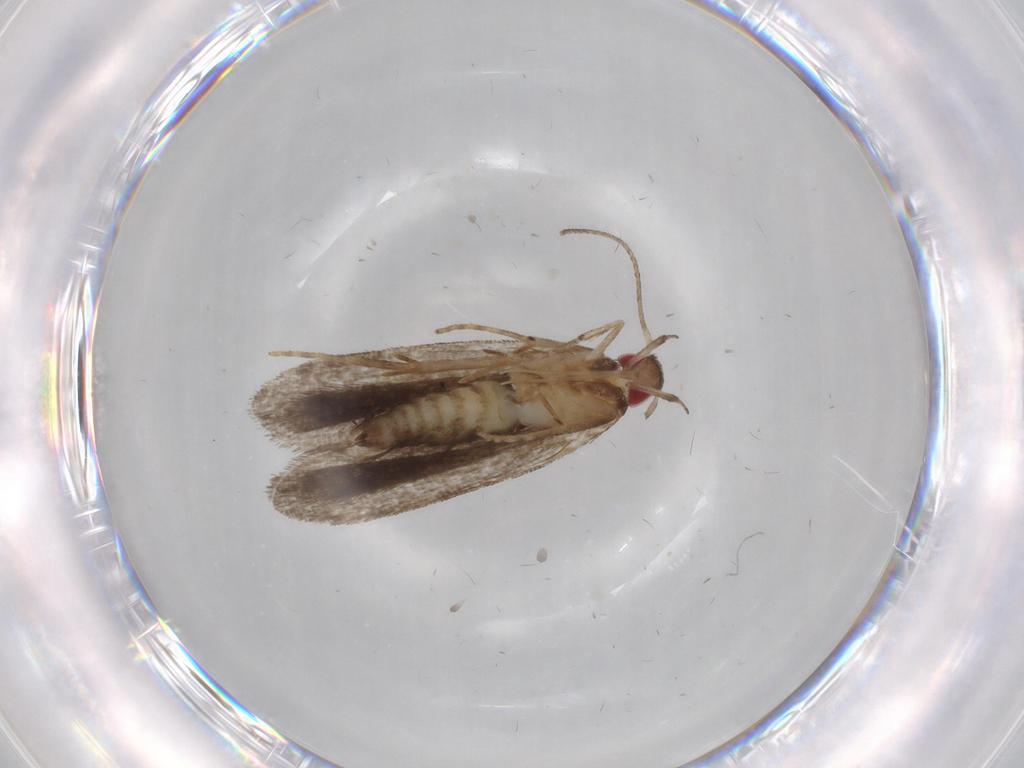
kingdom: Animalia
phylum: Arthropoda
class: Insecta
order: Lepidoptera
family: Gelechiidae
